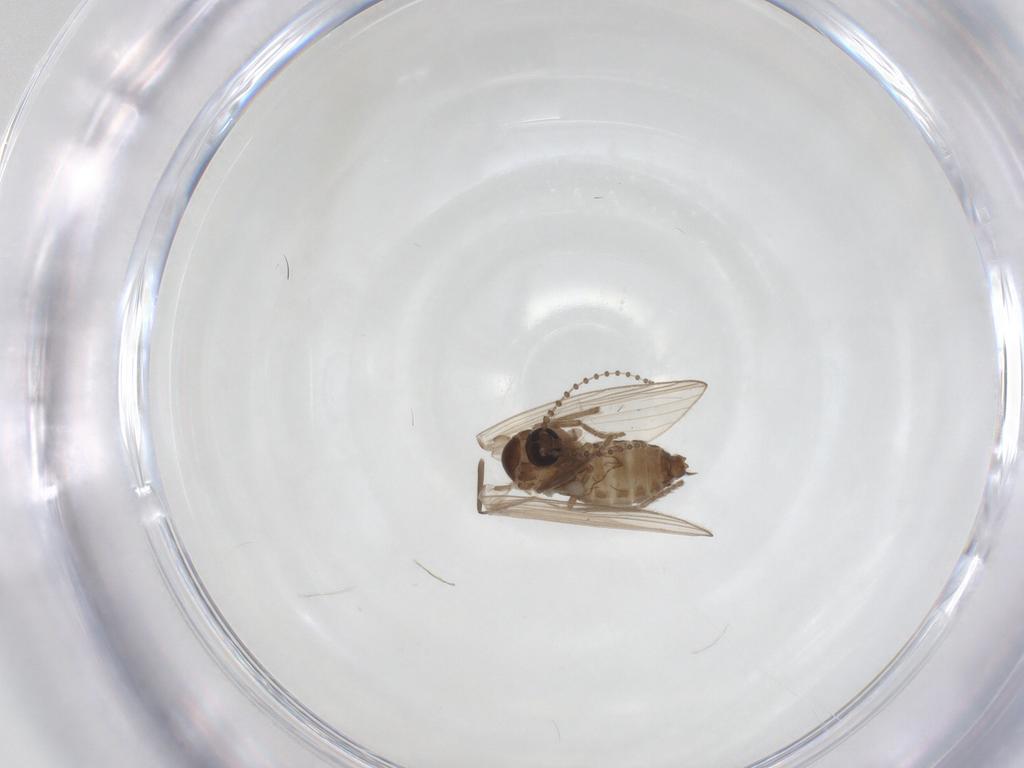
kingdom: Animalia
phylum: Arthropoda
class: Insecta
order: Diptera
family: Psychodidae
